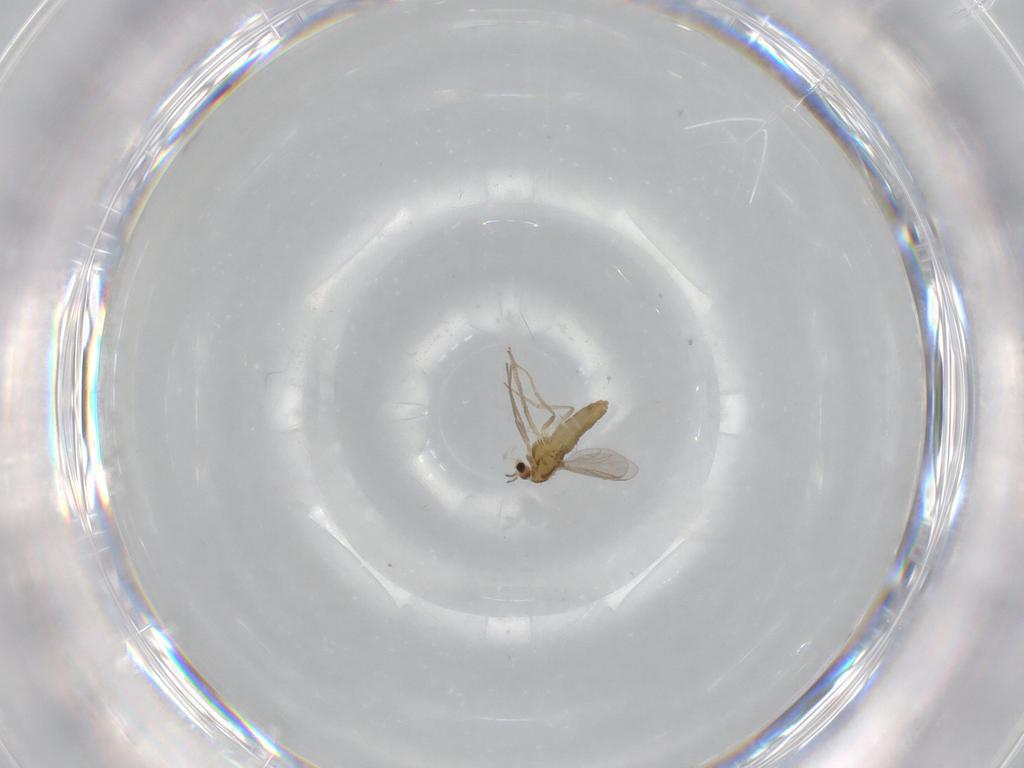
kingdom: Animalia
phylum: Arthropoda
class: Insecta
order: Diptera
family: Chironomidae
